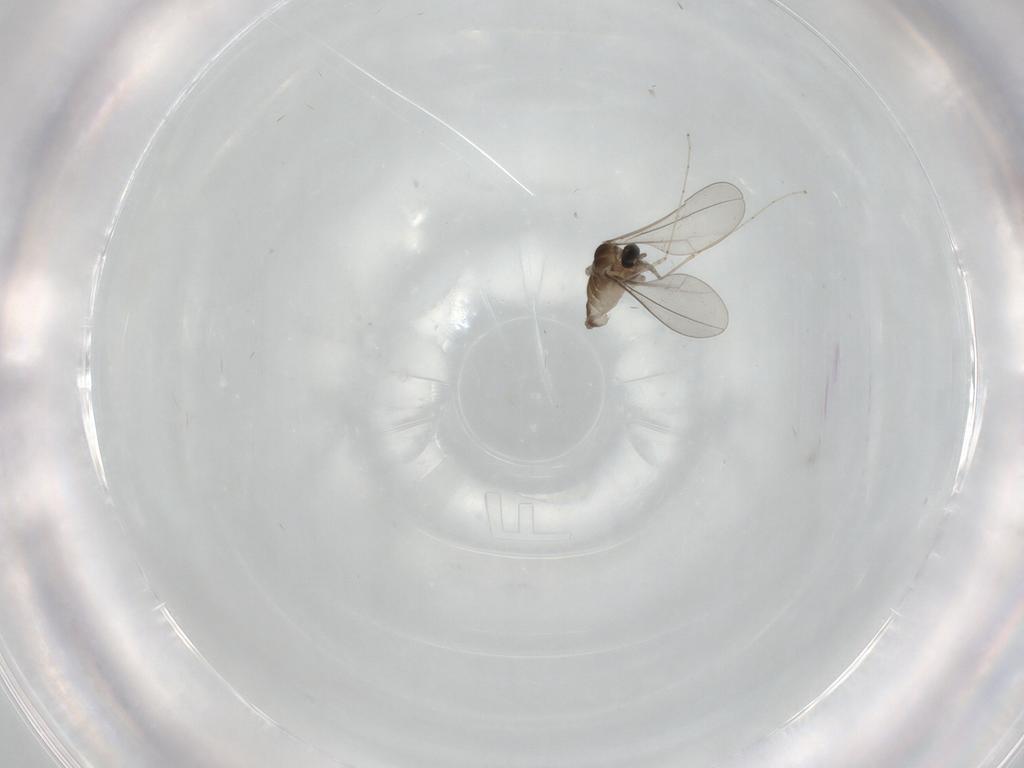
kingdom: Animalia
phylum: Arthropoda
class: Insecta
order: Diptera
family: Cecidomyiidae
